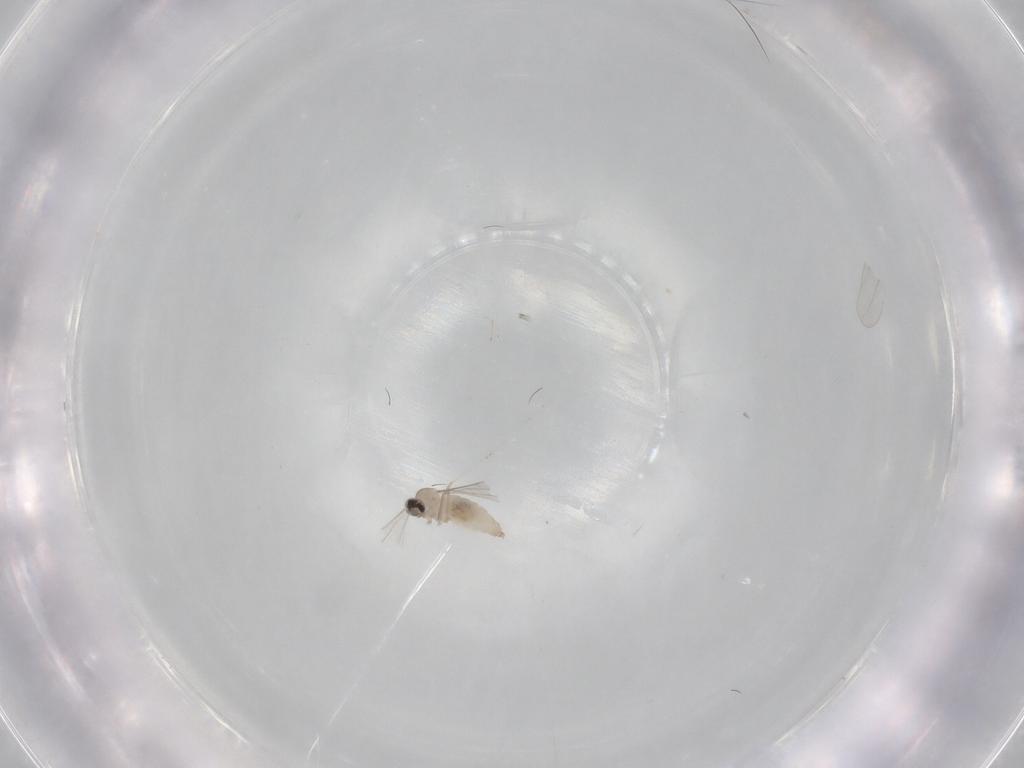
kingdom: Animalia
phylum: Arthropoda
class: Insecta
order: Diptera
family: Cecidomyiidae
